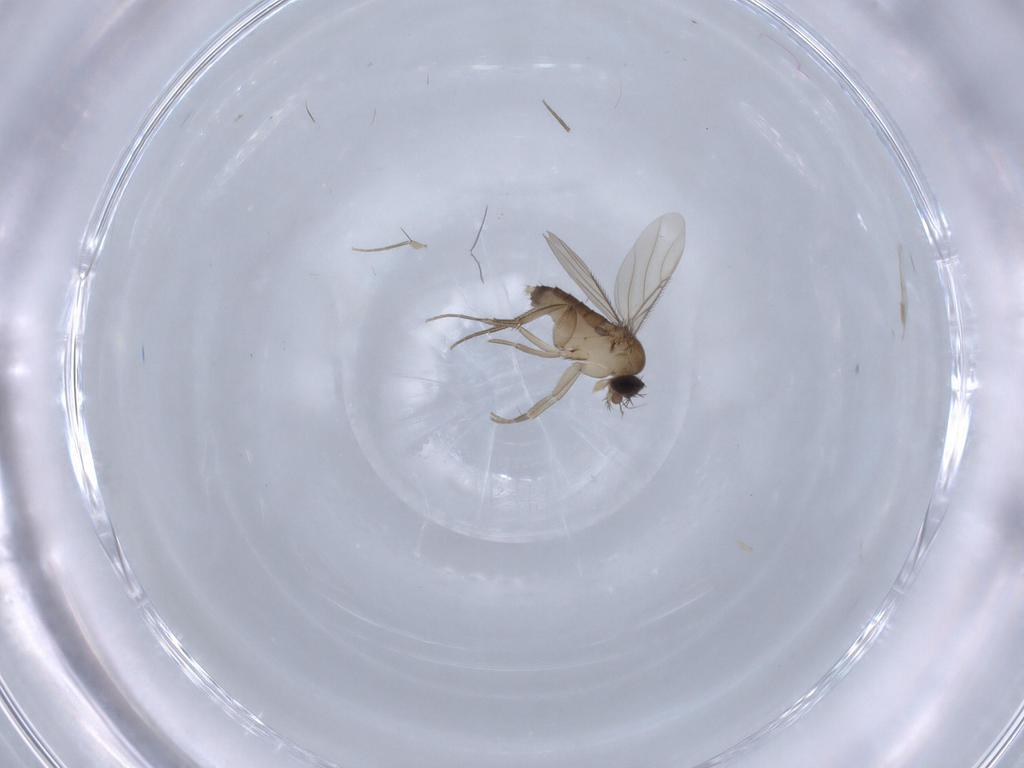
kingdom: Animalia
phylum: Arthropoda
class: Insecta
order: Diptera
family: Phoridae
